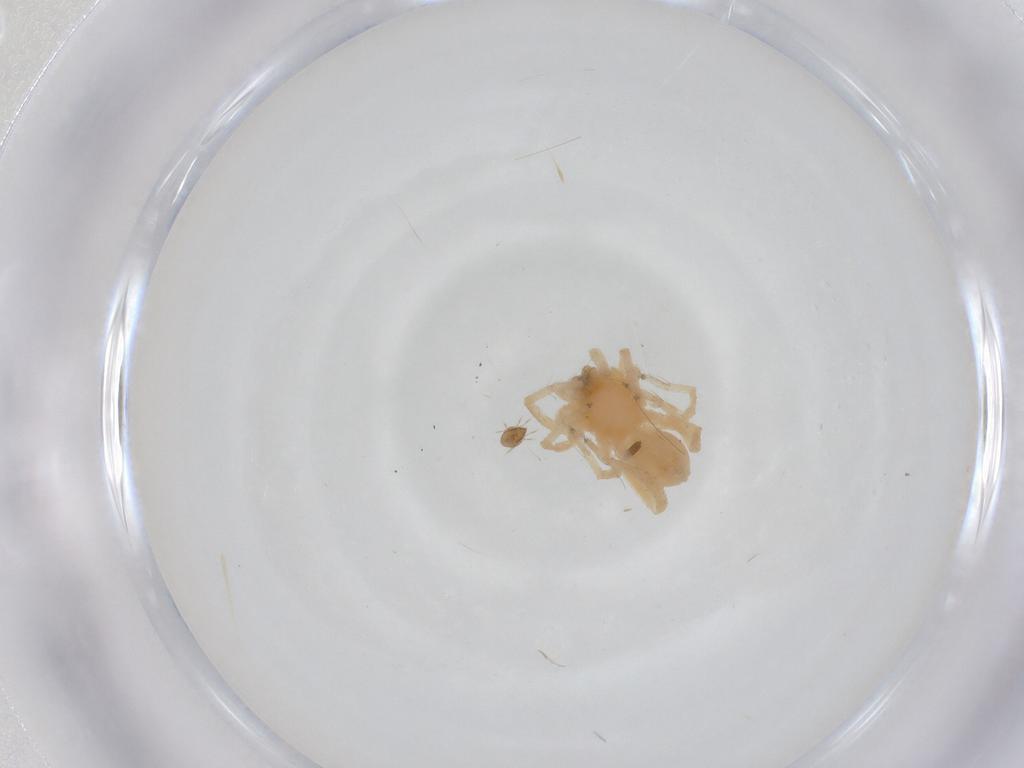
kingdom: Animalia
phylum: Arthropoda
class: Arachnida
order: Araneae
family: Anyphaenidae
